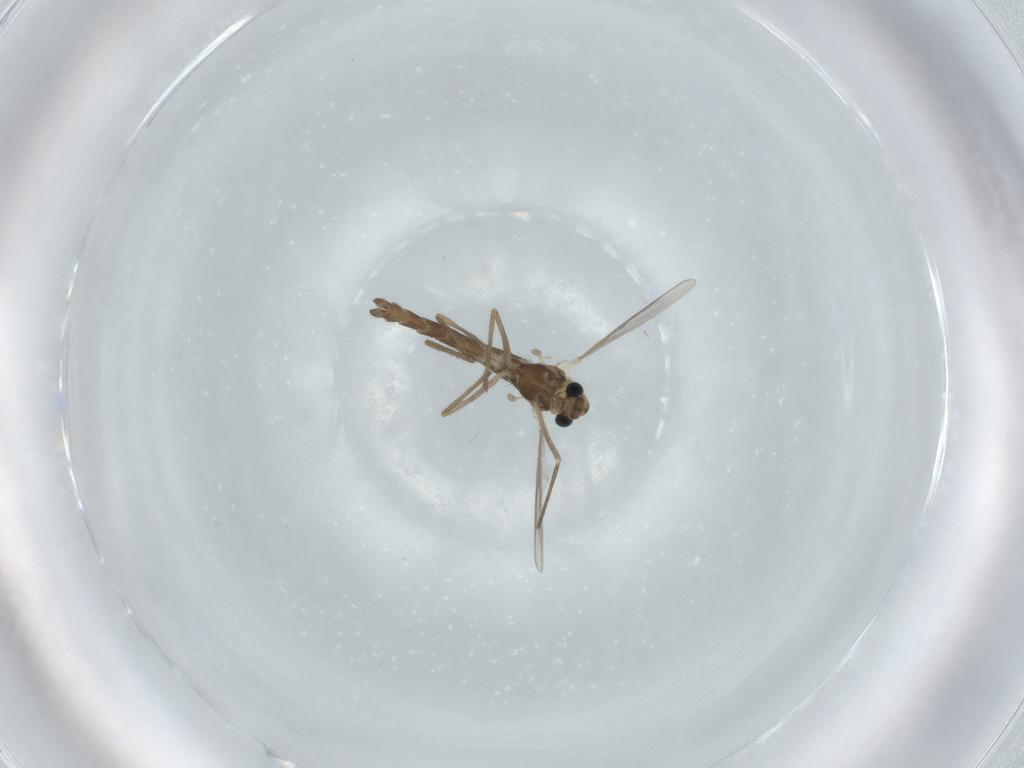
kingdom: Animalia
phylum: Arthropoda
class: Insecta
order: Diptera
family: Chironomidae
